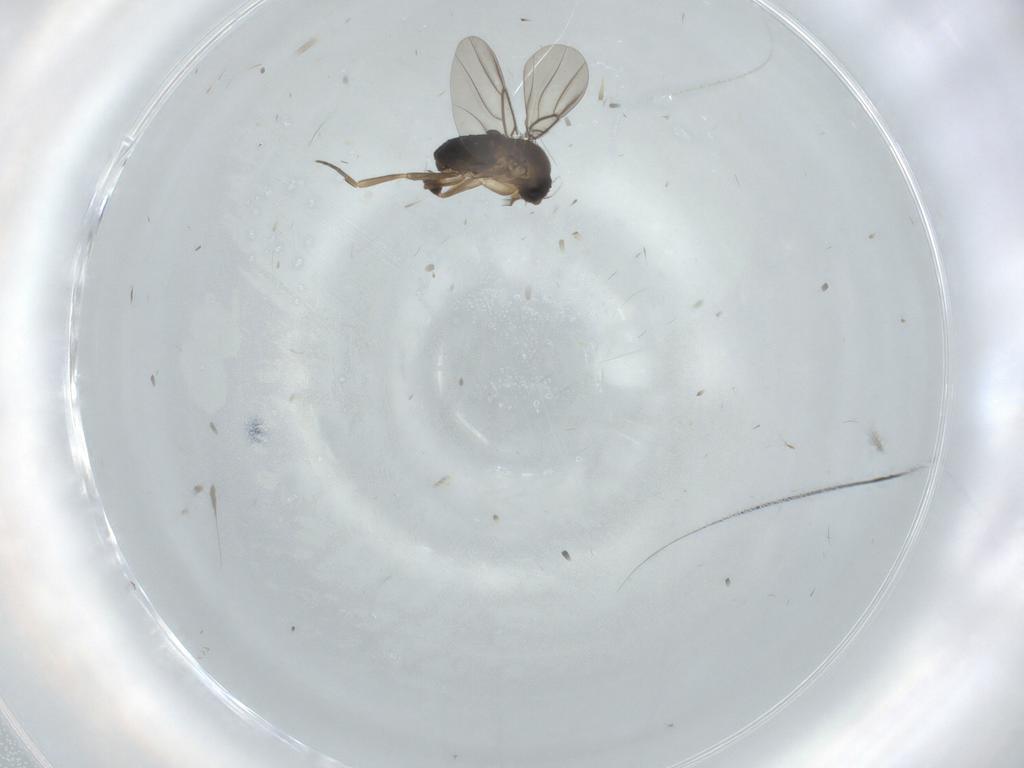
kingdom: Animalia
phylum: Arthropoda
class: Insecta
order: Diptera
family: Phoridae
